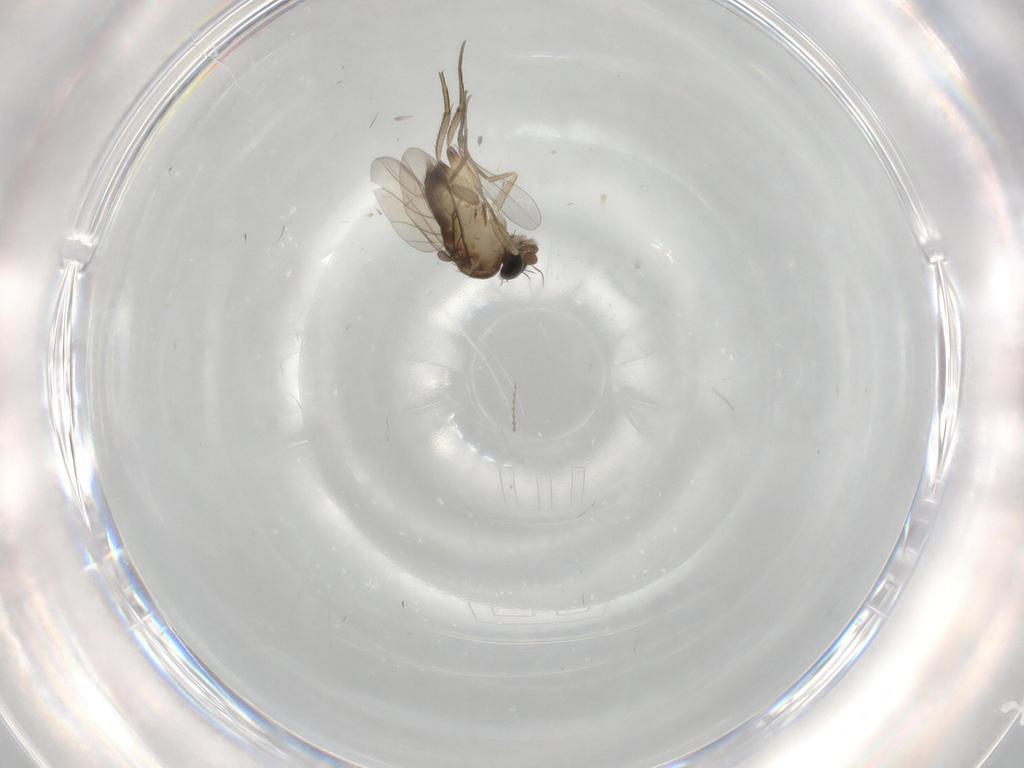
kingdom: Animalia
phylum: Arthropoda
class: Insecta
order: Diptera
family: Phoridae
